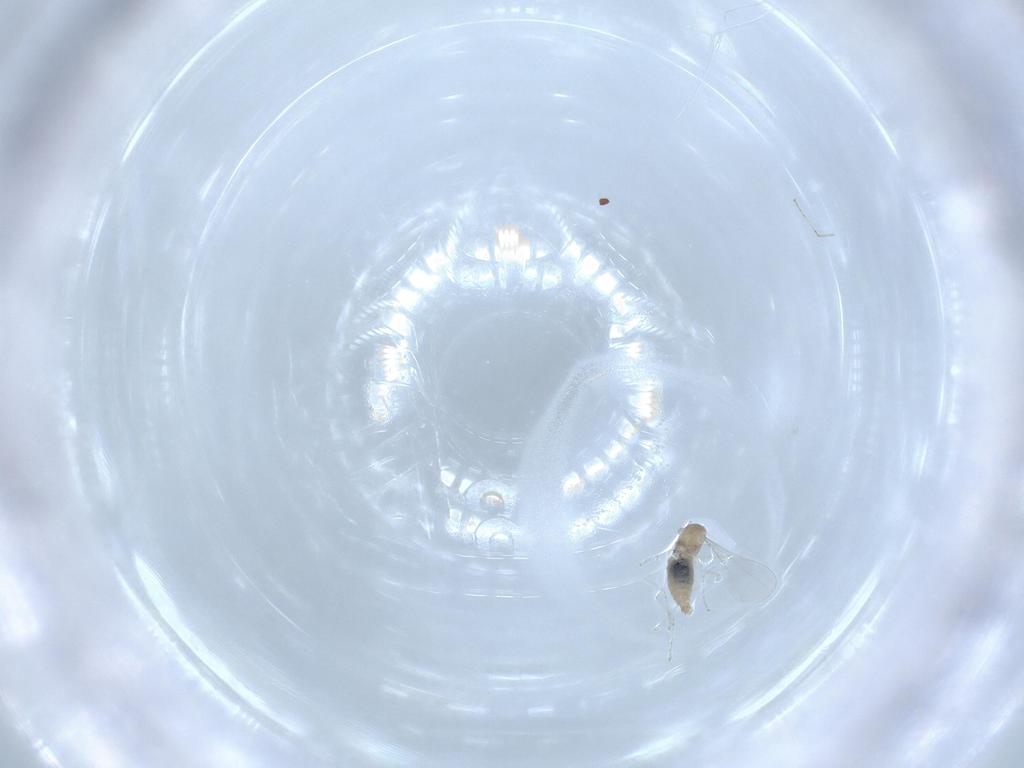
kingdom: Animalia
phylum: Arthropoda
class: Insecta
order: Diptera
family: Cecidomyiidae
